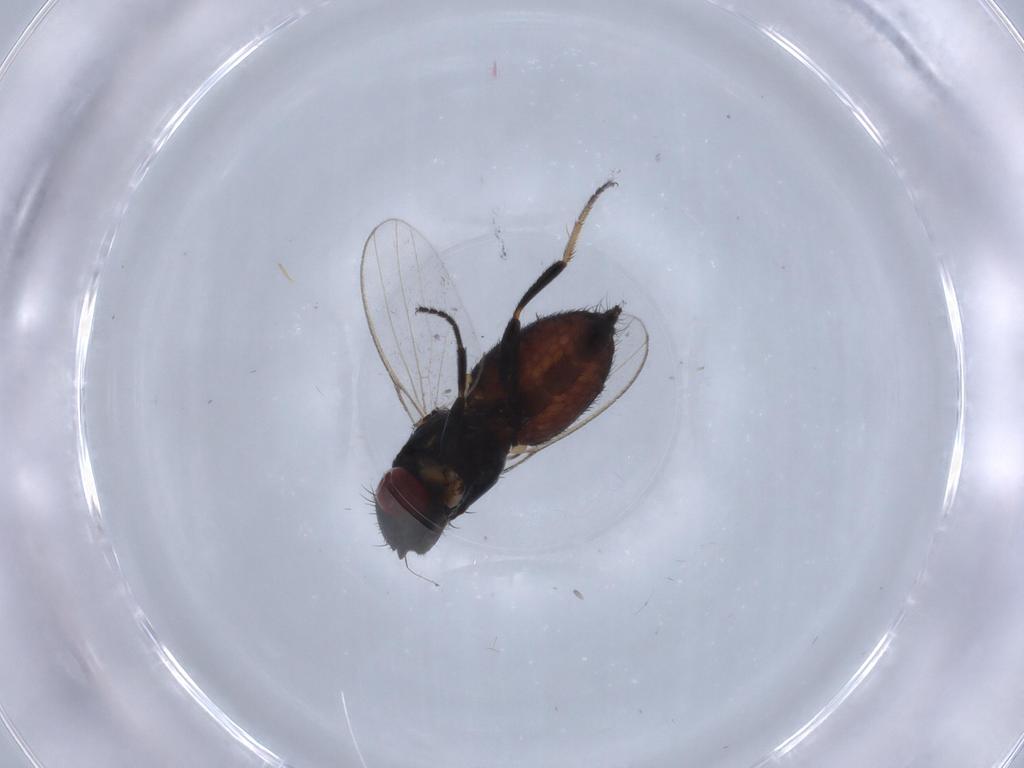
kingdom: Animalia
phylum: Arthropoda
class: Insecta
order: Diptera
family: Milichiidae
